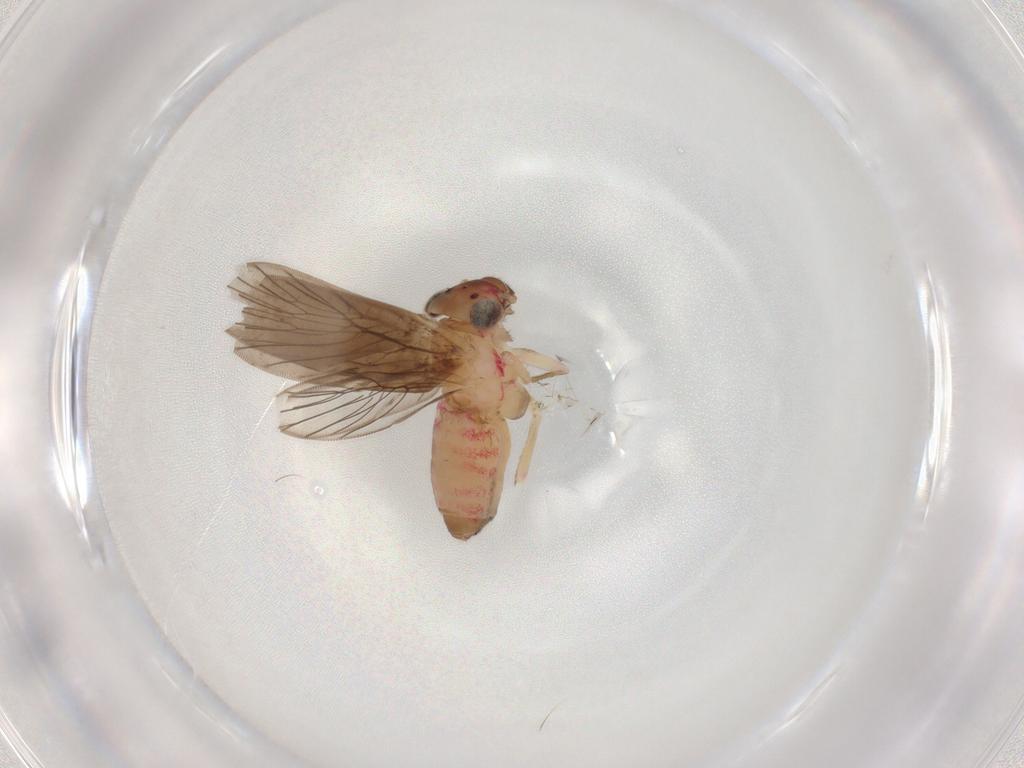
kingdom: Animalia
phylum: Arthropoda
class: Insecta
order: Psocodea
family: Lepidopsocidae
